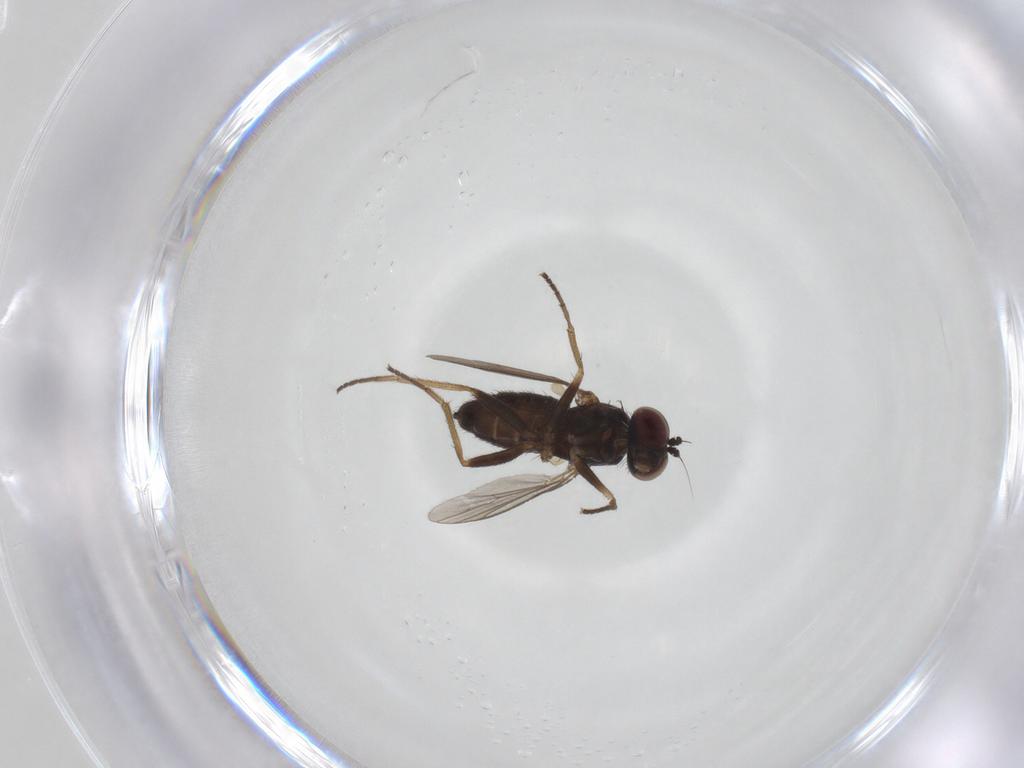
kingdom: Animalia
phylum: Arthropoda
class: Insecta
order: Diptera
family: Dolichopodidae
